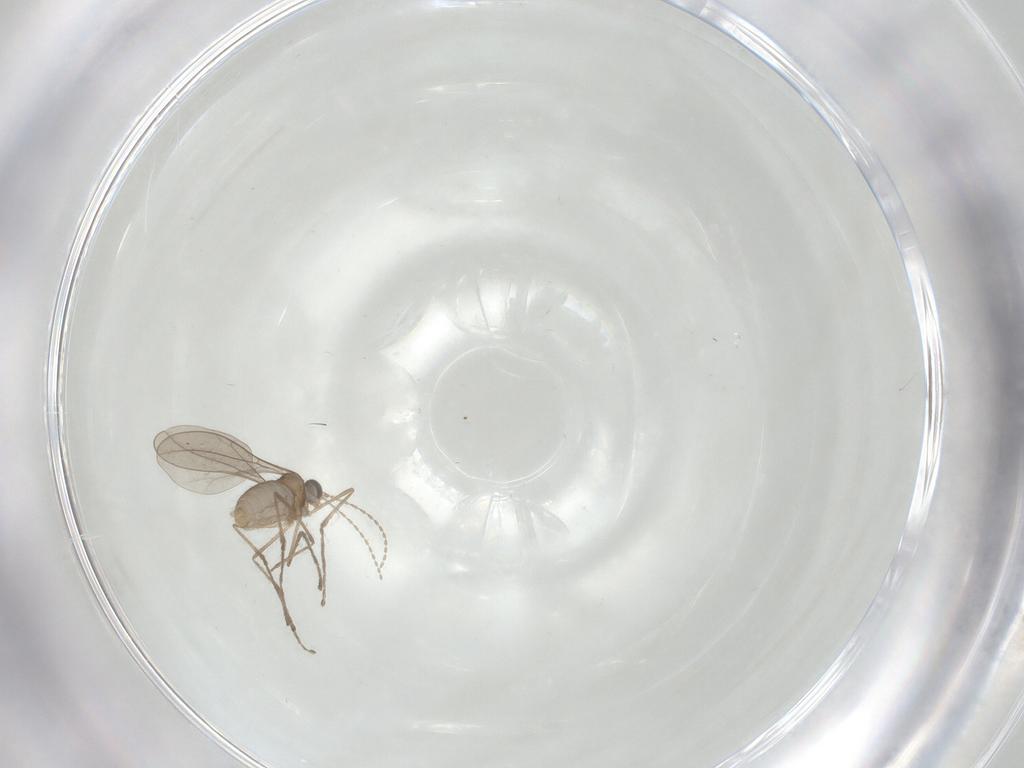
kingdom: Animalia
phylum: Arthropoda
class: Insecta
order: Diptera
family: Cecidomyiidae
